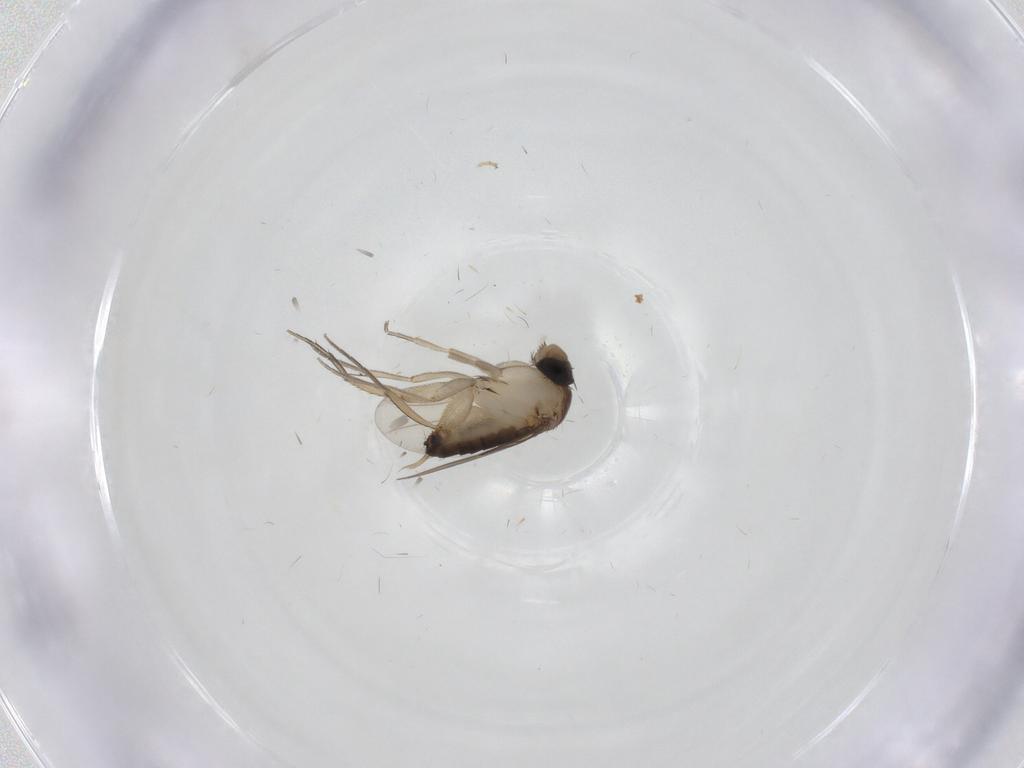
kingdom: Animalia
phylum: Arthropoda
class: Insecta
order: Diptera
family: Phoridae
